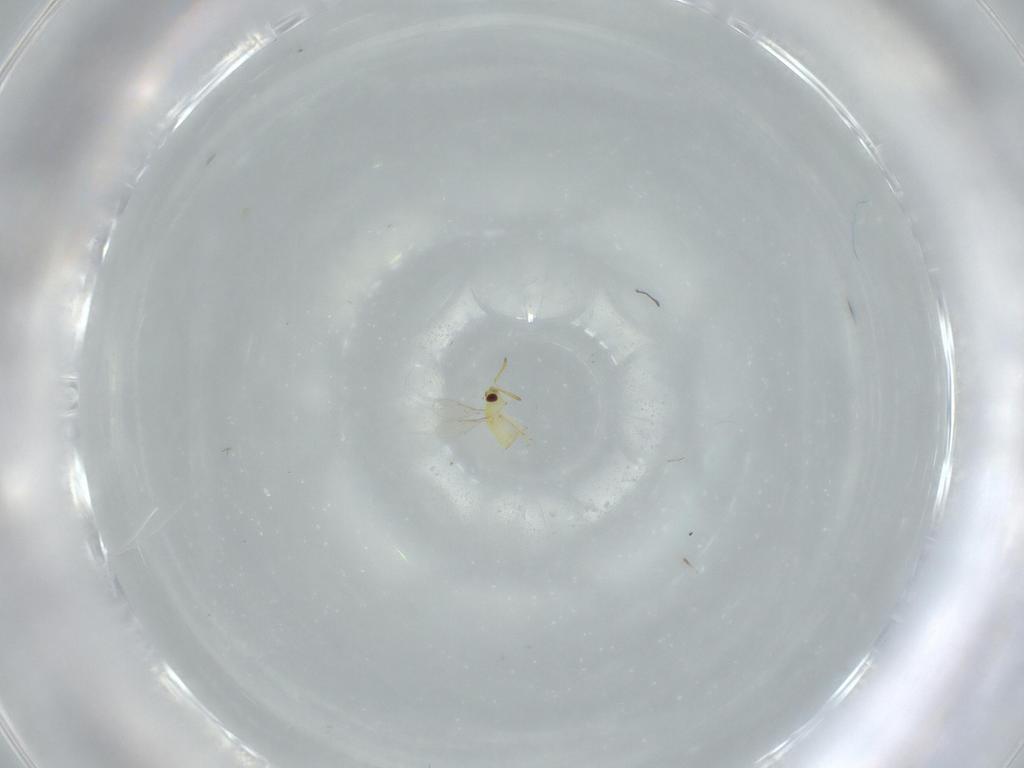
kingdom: Animalia
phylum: Arthropoda
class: Insecta
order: Hymenoptera
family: Aphelinidae
